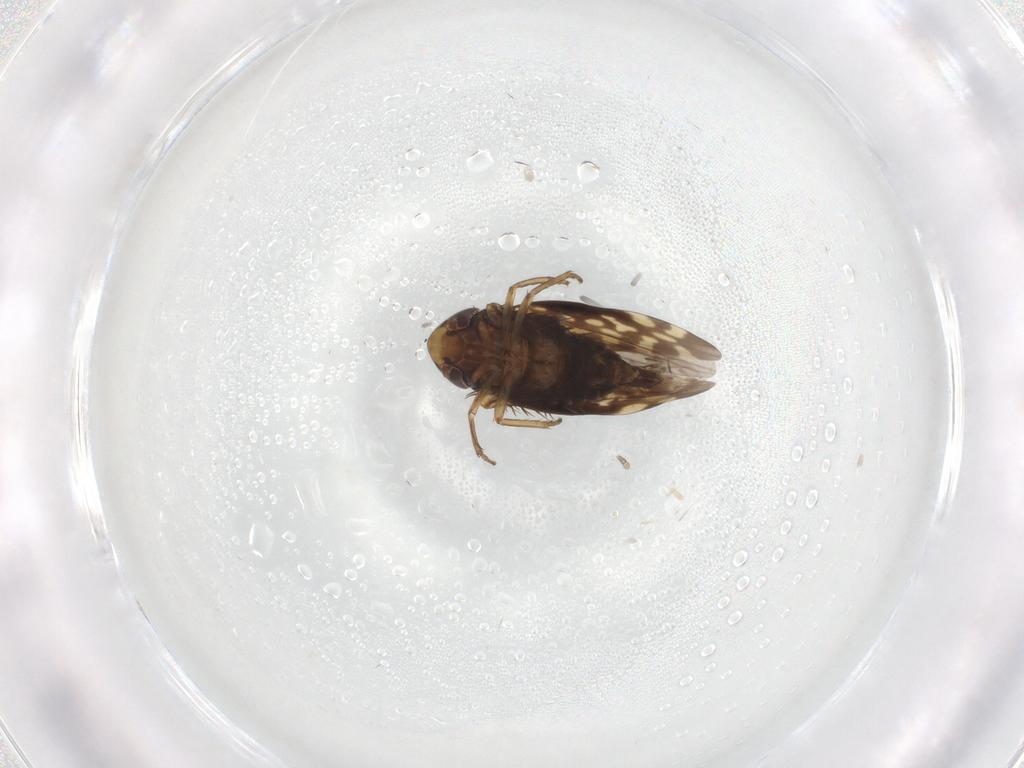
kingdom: Animalia
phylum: Arthropoda
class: Insecta
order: Hemiptera
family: Cicadellidae
